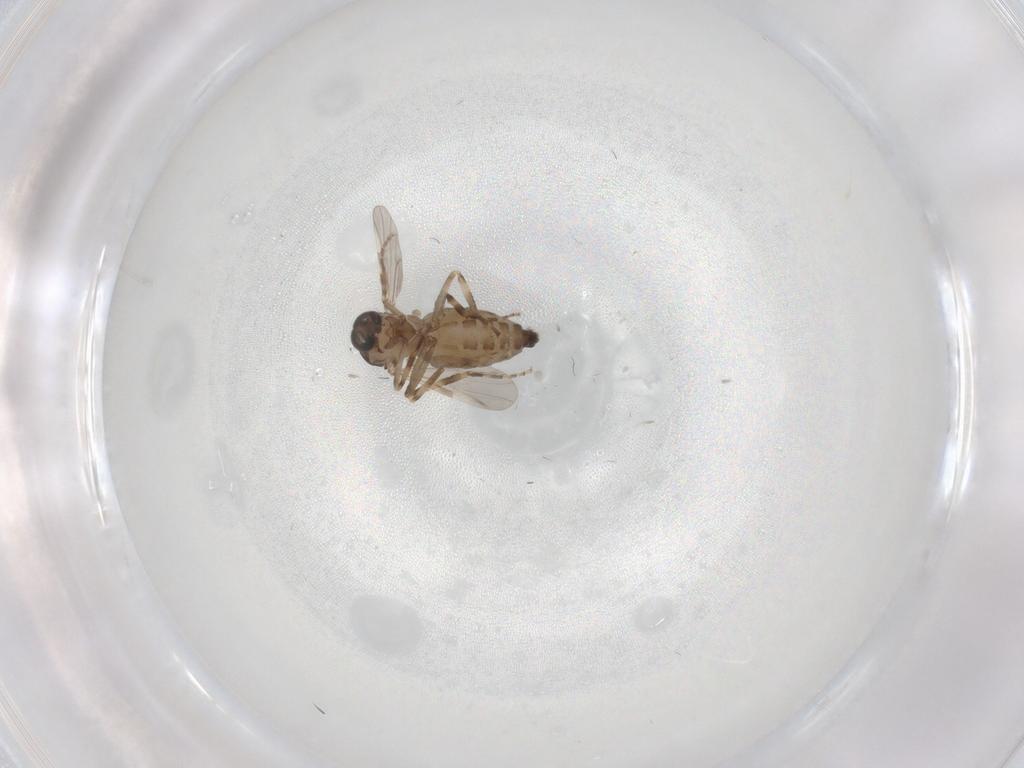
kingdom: Animalia
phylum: Arthropoda
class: Insecta
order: Diptera
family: Ceratopogonidae
